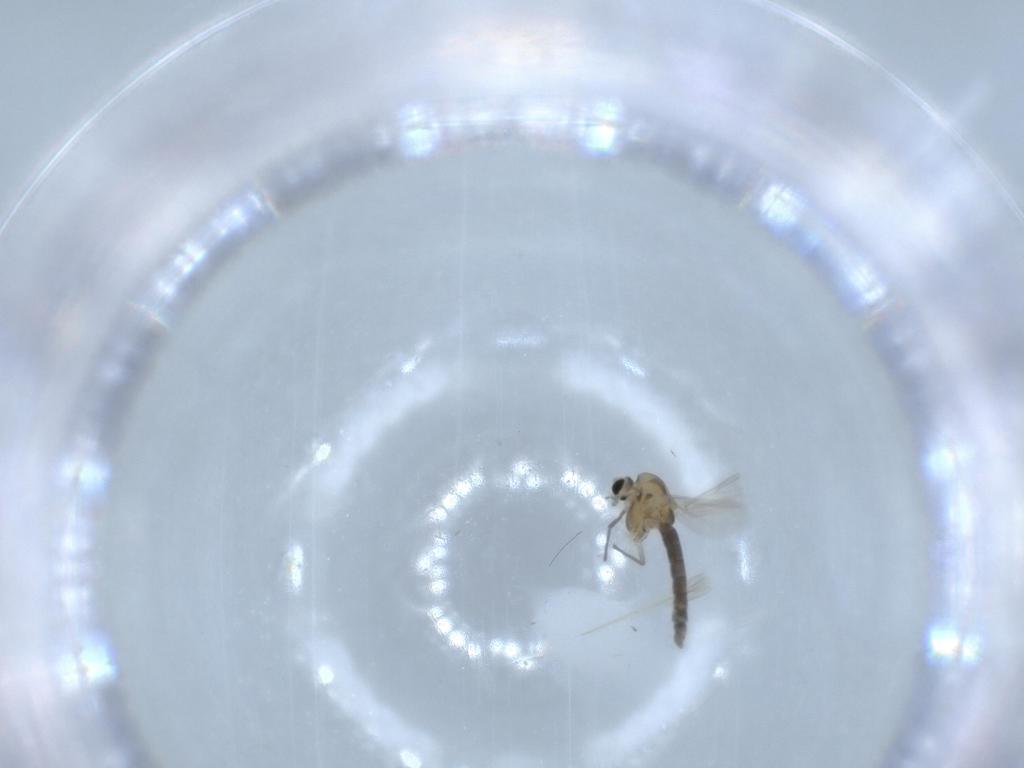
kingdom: Animalia
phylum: Arthropoda
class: Insecta
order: Diptera
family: Chironomidae
